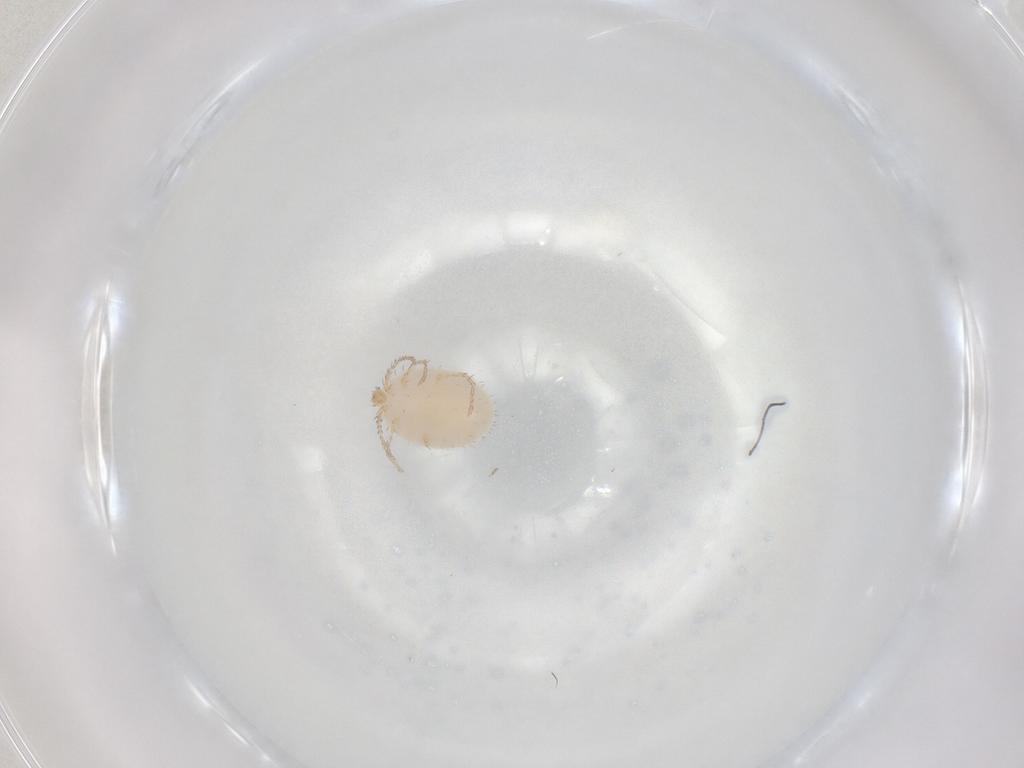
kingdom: Animalia
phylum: Arthropoda
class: Arachnida
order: Trombidiformes
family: Erythraeidae
